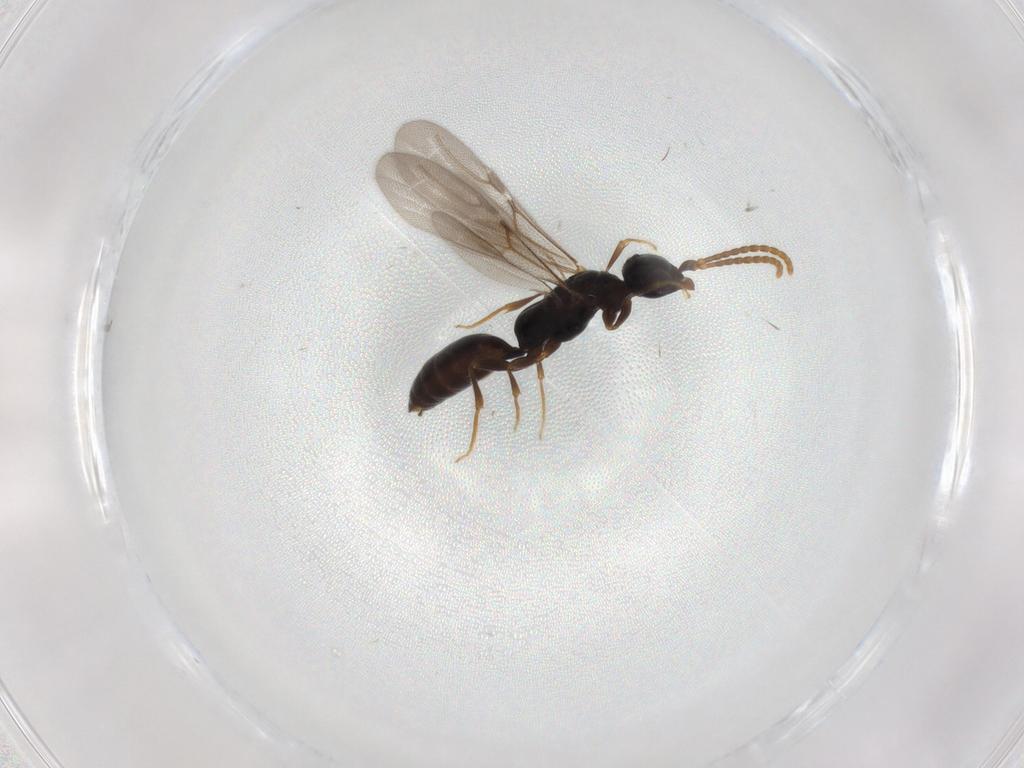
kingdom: Animalia
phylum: Arthropoda
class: Insecta
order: Hymenoptera
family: Bethylidae
